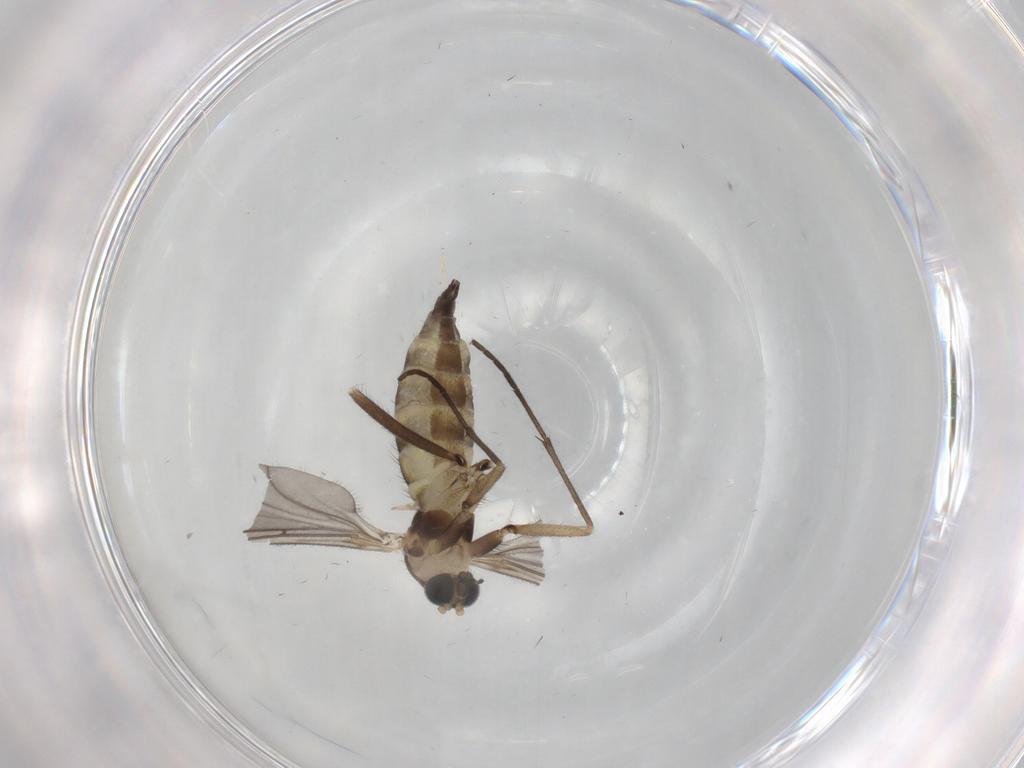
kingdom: Animalia
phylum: Arthropoda
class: Insecta
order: Diptera
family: Sciaridae
